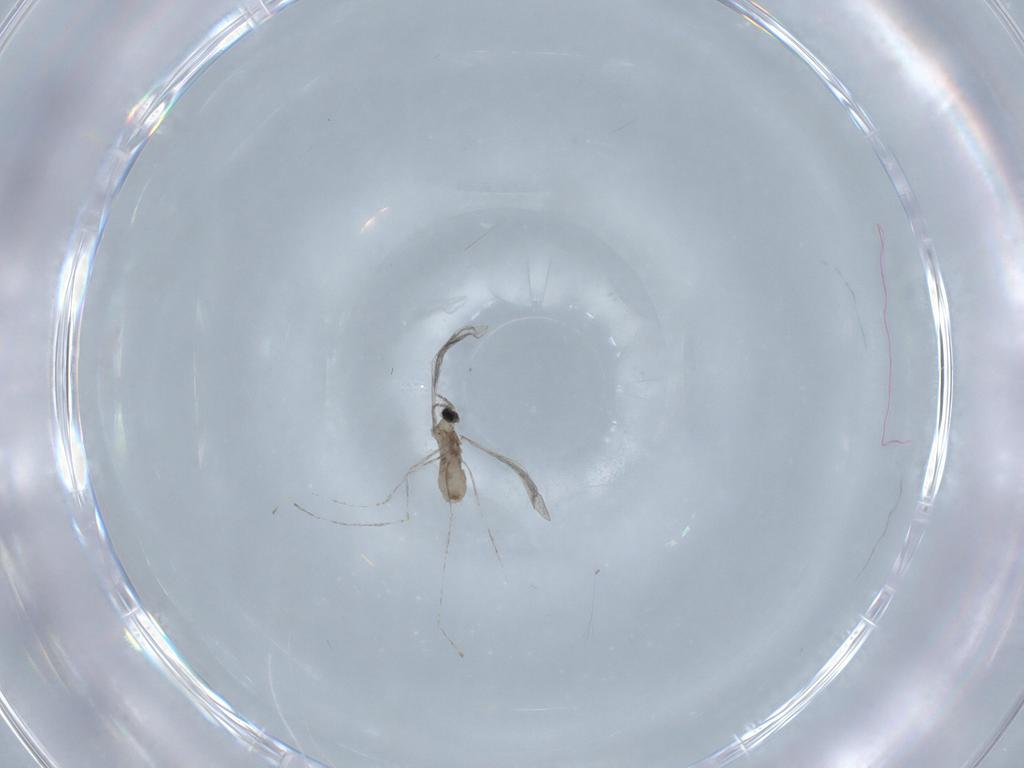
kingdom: Animalia
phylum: Arthropoda
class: Insecta
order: Diptera
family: Cecidomyiidae
